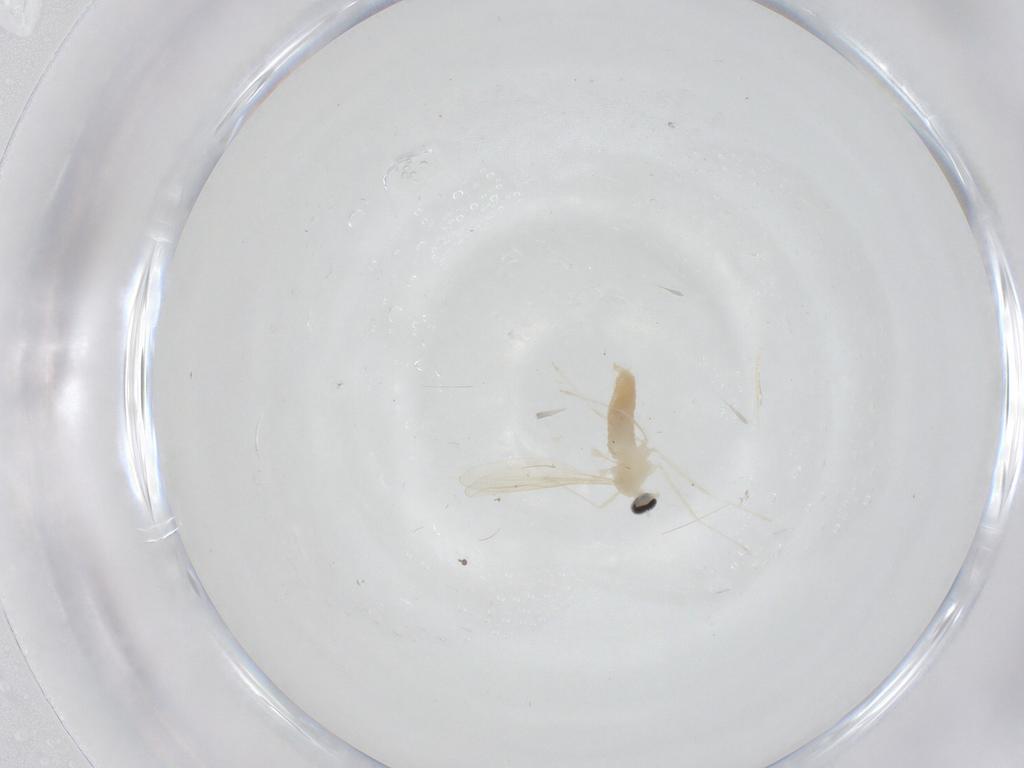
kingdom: Animalia
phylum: Arthropoda
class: Insecta
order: Diptera
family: Cecidomyiidae
